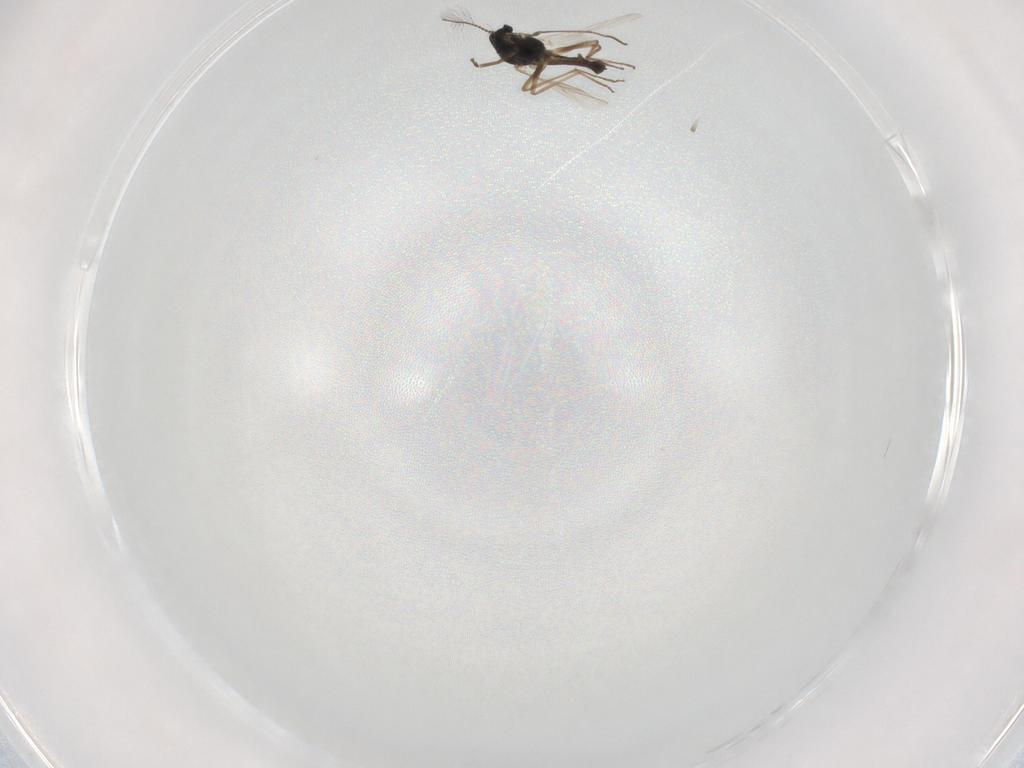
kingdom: Animalia
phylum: Arthropoda
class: Insecta
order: Diptera
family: Chironomidae
